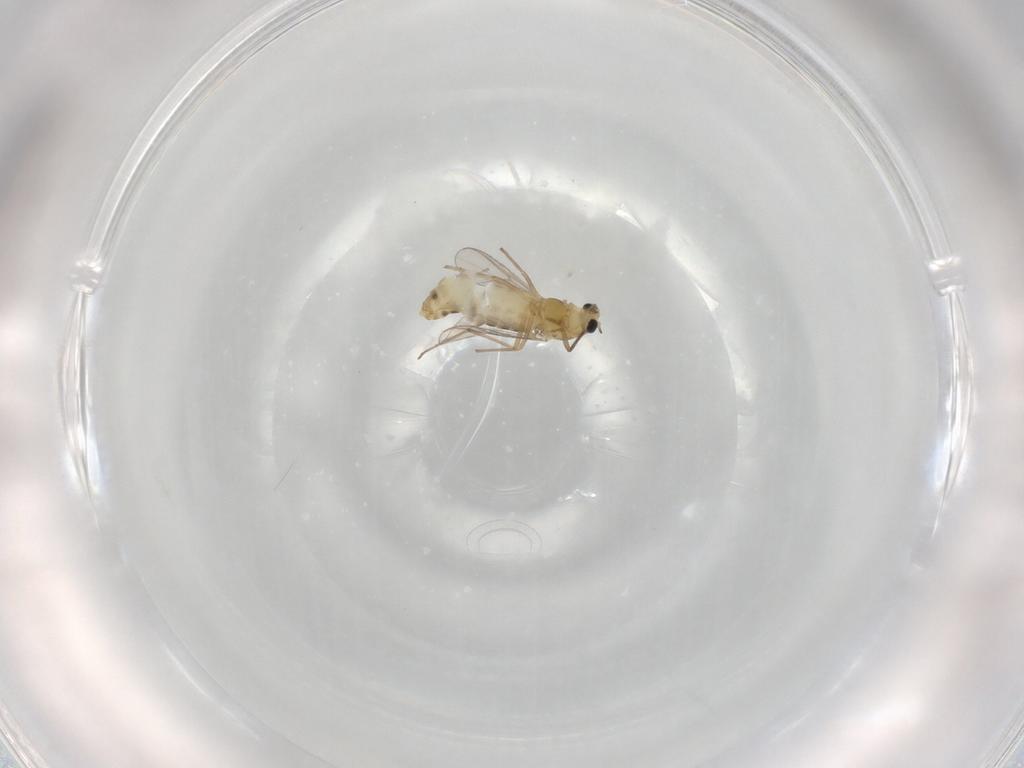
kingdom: Animalia
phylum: Arthropoda
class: Insecta
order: Diptera
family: Chironomidae
